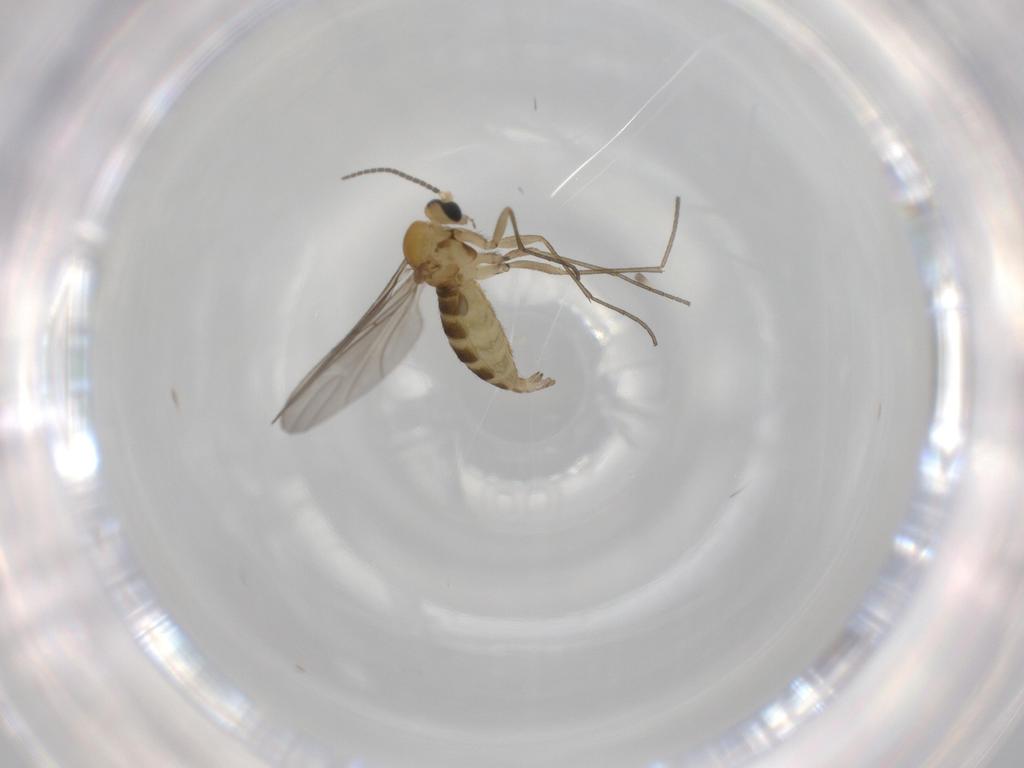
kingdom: Animalia
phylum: Arthropoda
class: Insecta
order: Diptera
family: Sciaridae
